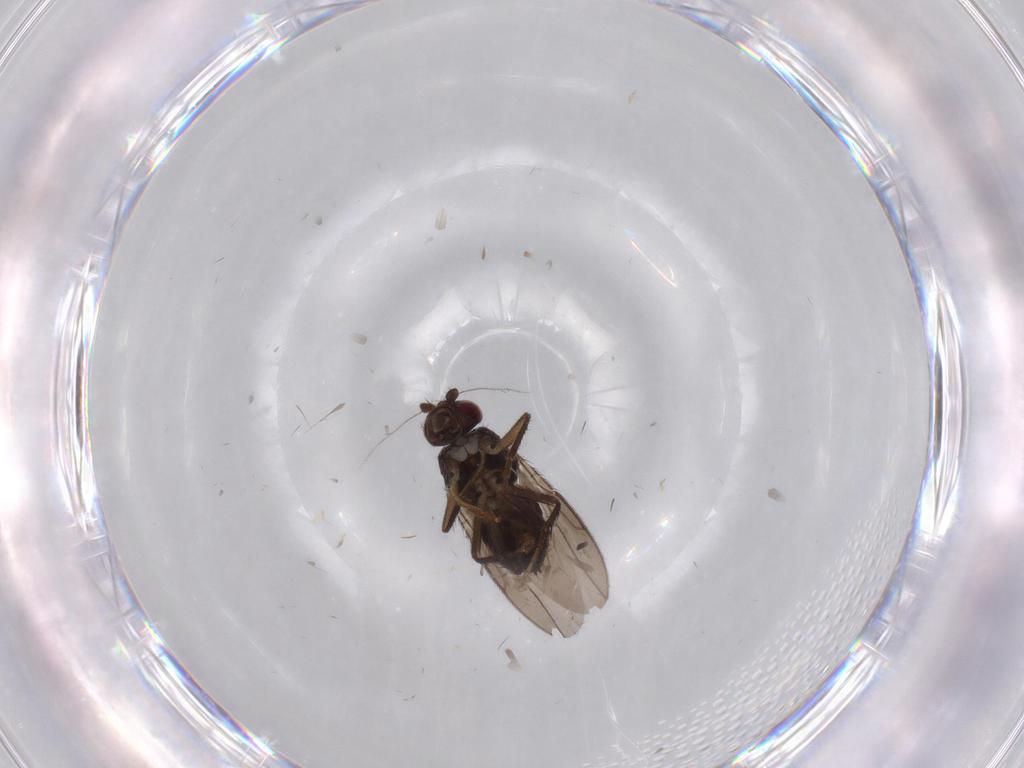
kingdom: Animalia
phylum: Arthropoda
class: Insecta
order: Diptera
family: Sphaeroceridae
